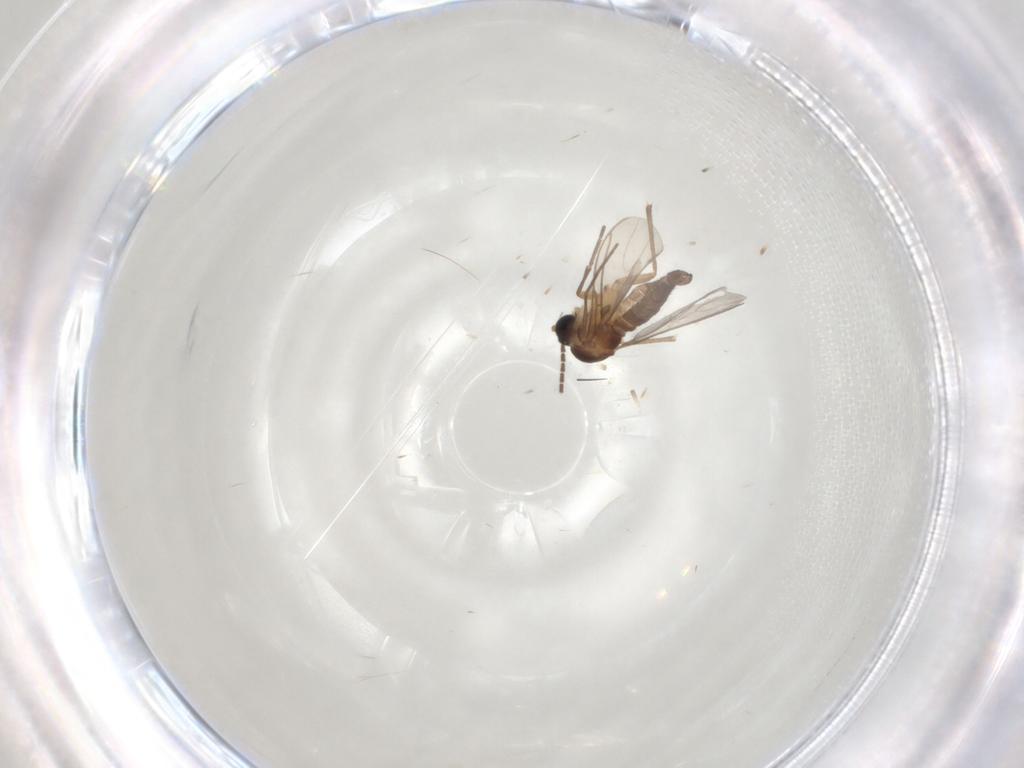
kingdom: Animalia
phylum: Arthropoda
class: Insecta
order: Diptera
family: Sciaridae
